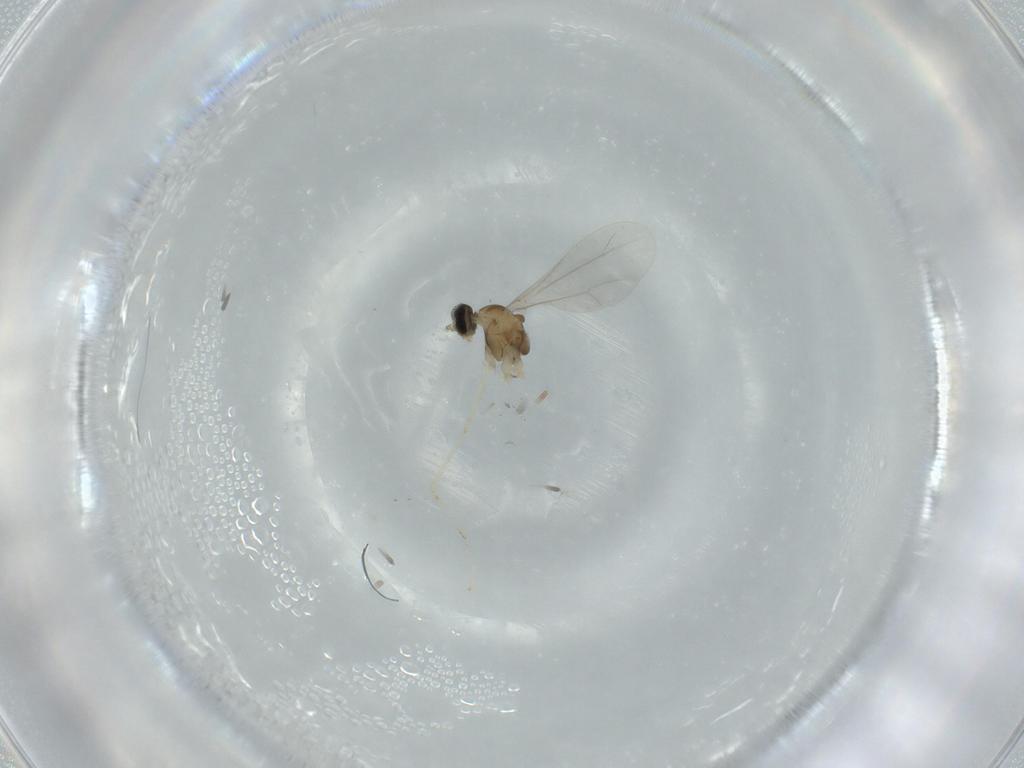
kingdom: Animalia
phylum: Arthropoda
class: Insecta
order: Diptera
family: Cecidomyiidae
